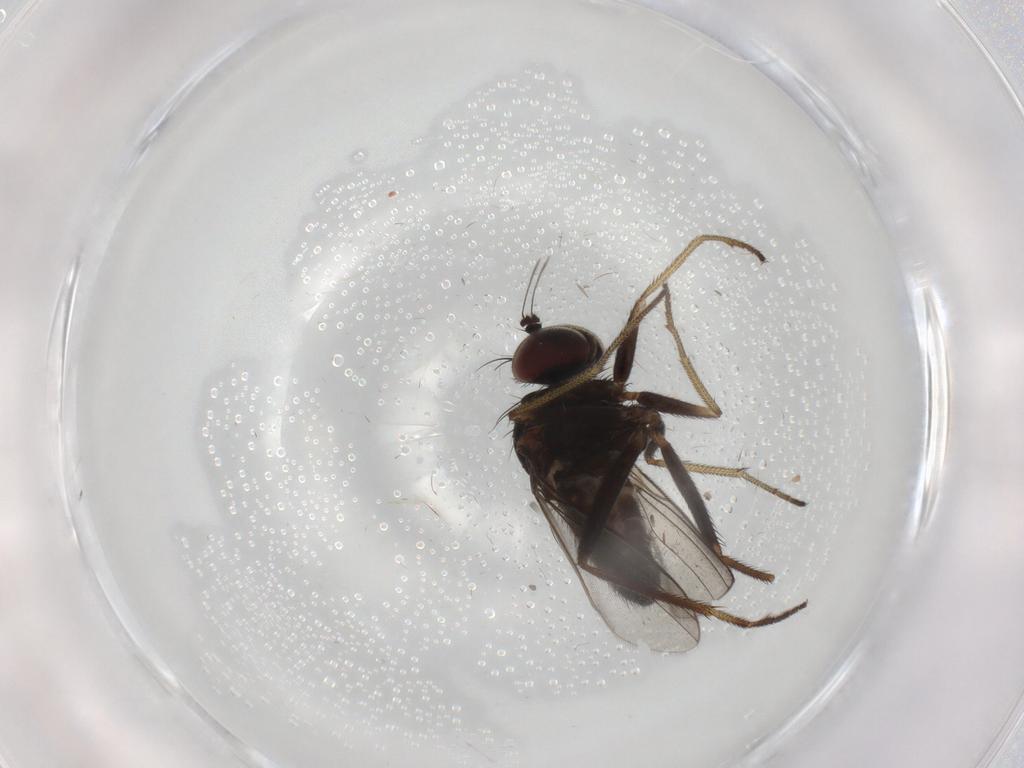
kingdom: Animalia
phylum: Arthropoda
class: Insecta
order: Diptera
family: Dolichopodidae
